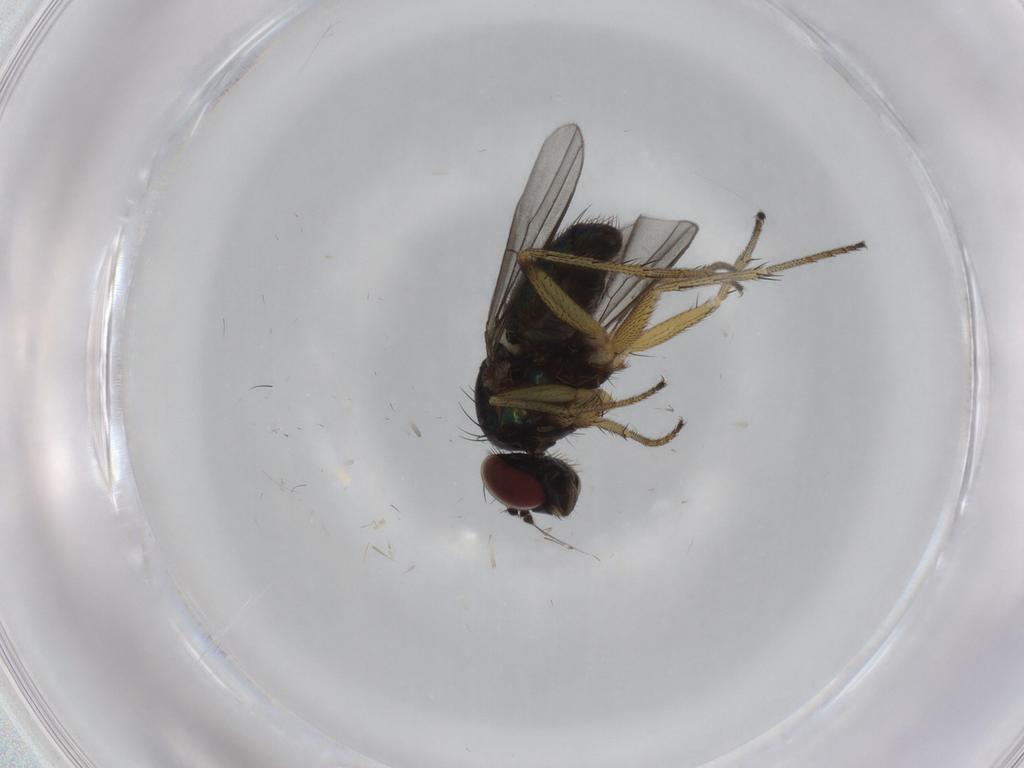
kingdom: Animalia
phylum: Arthropoda
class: Insecta
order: Diptera
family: Dolichopodidae
